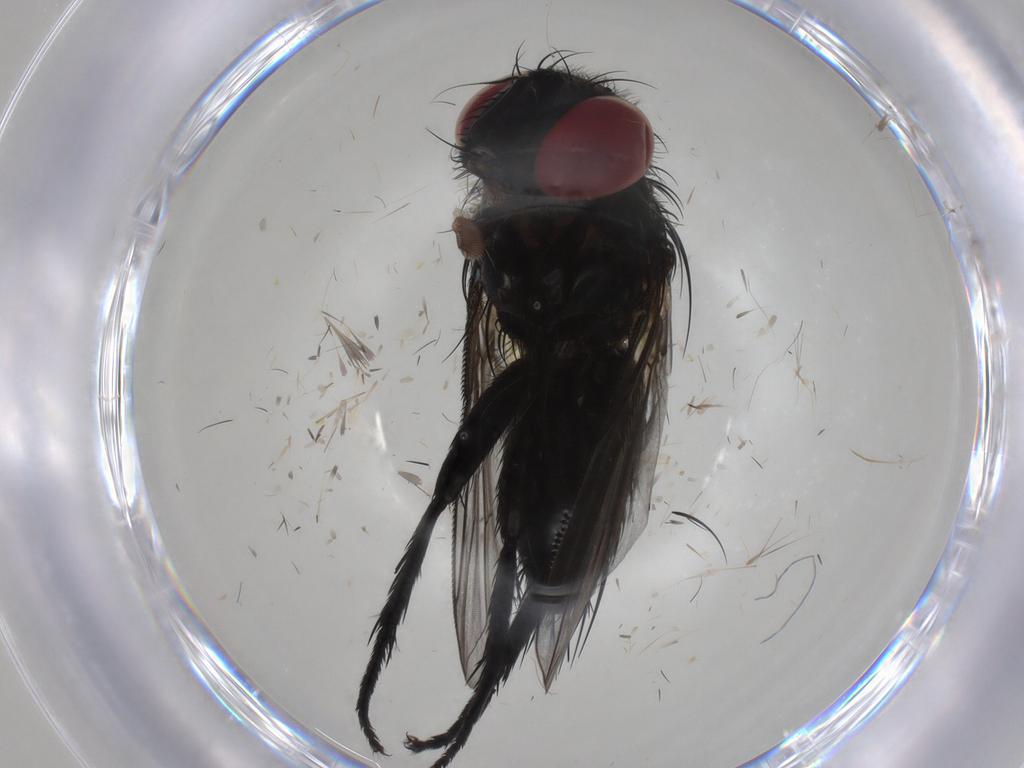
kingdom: Animalia
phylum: Arthropoda
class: Insecta
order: Diptera
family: Tachinidae
